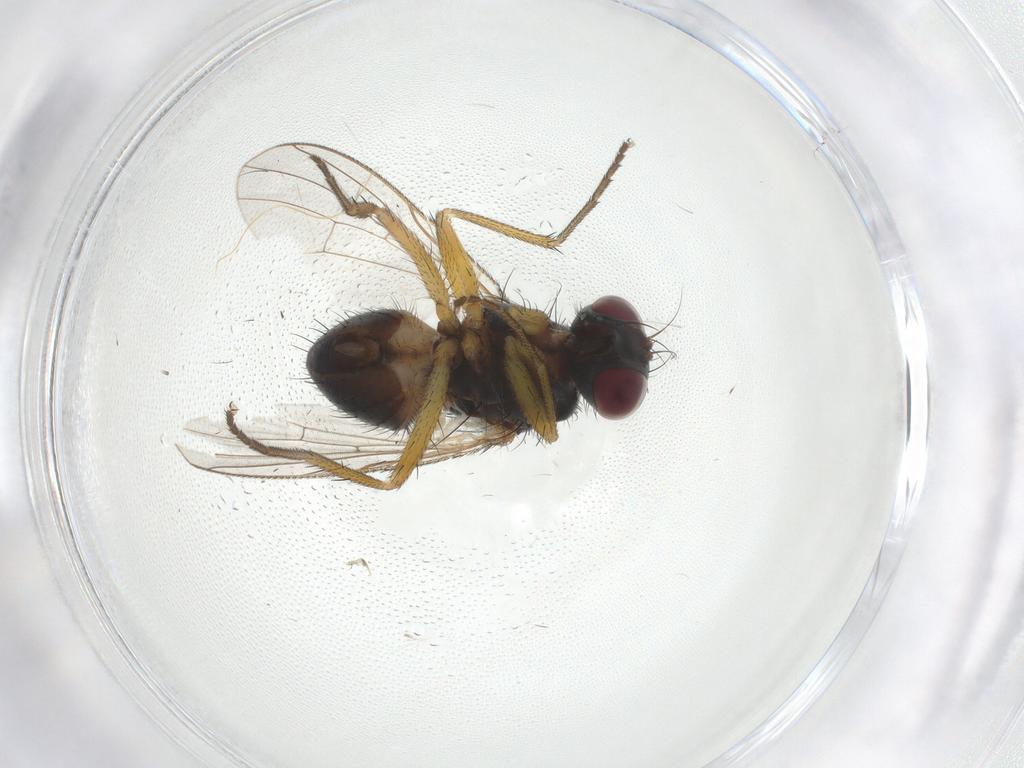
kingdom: Animalia
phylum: Arthropoda
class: Insecta
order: Diptera
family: Muscidae
